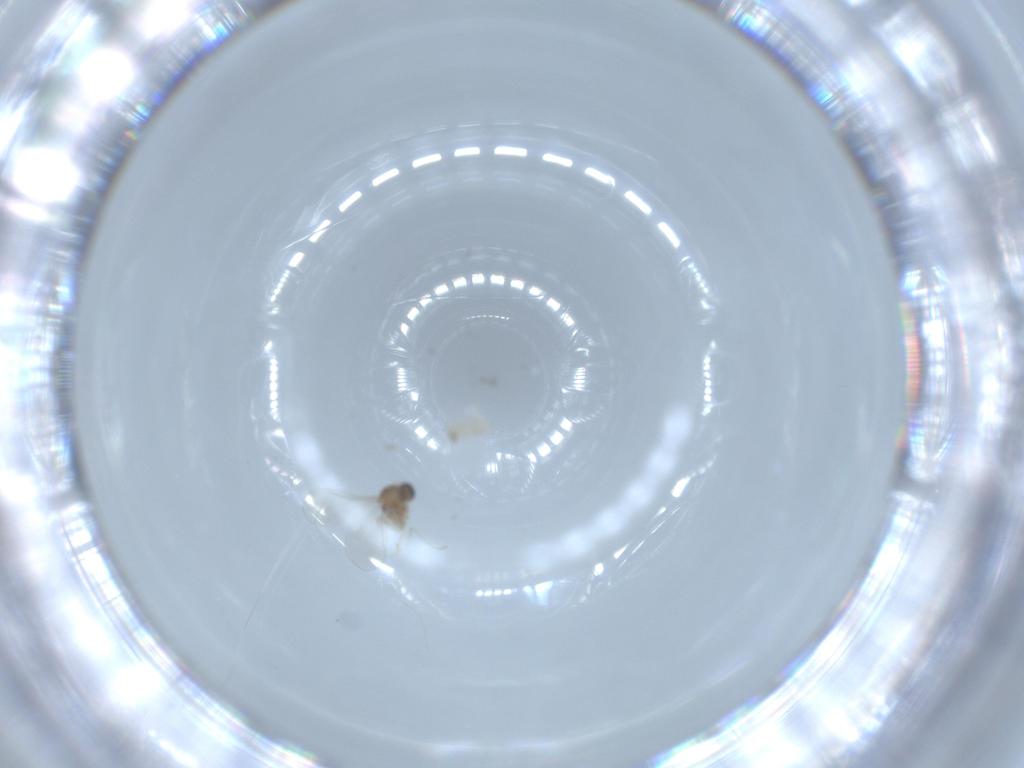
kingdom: Animalia
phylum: Arthropoda
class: Insecta
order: Diptera
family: Cecidomyiidae
